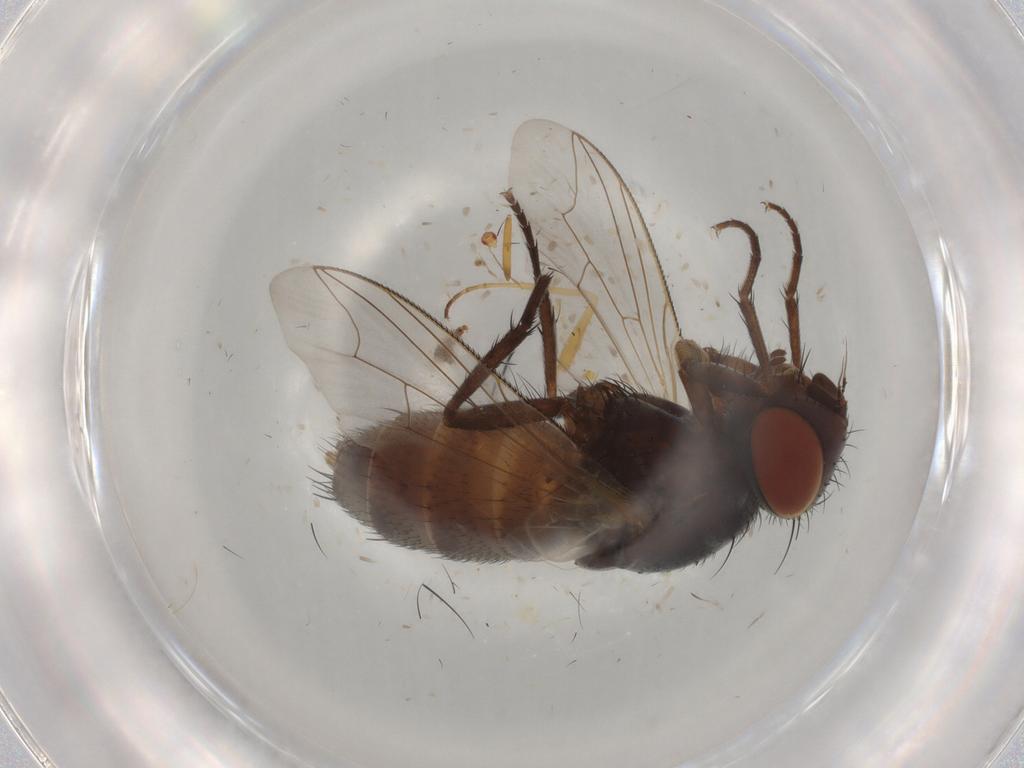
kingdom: Animalia
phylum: Arthropoda
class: Insecta
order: Diptera
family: Sarcophagidae
